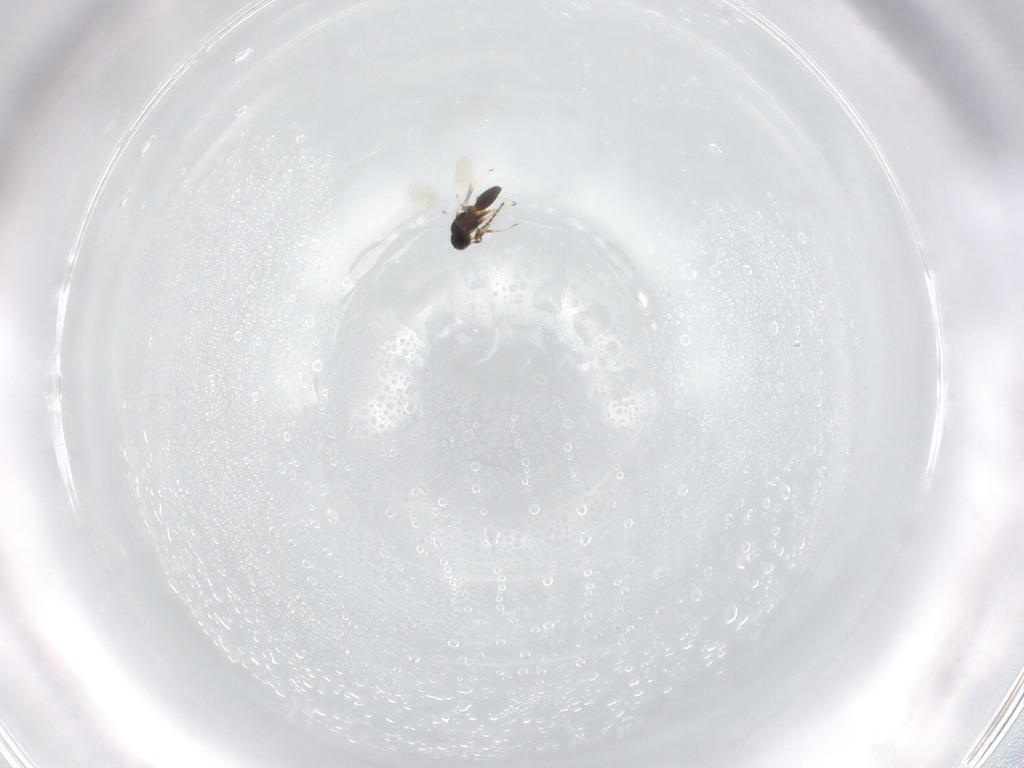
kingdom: Animalia
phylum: Arthropoda
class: Insecta
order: Hymenoptera
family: Platygastridae
